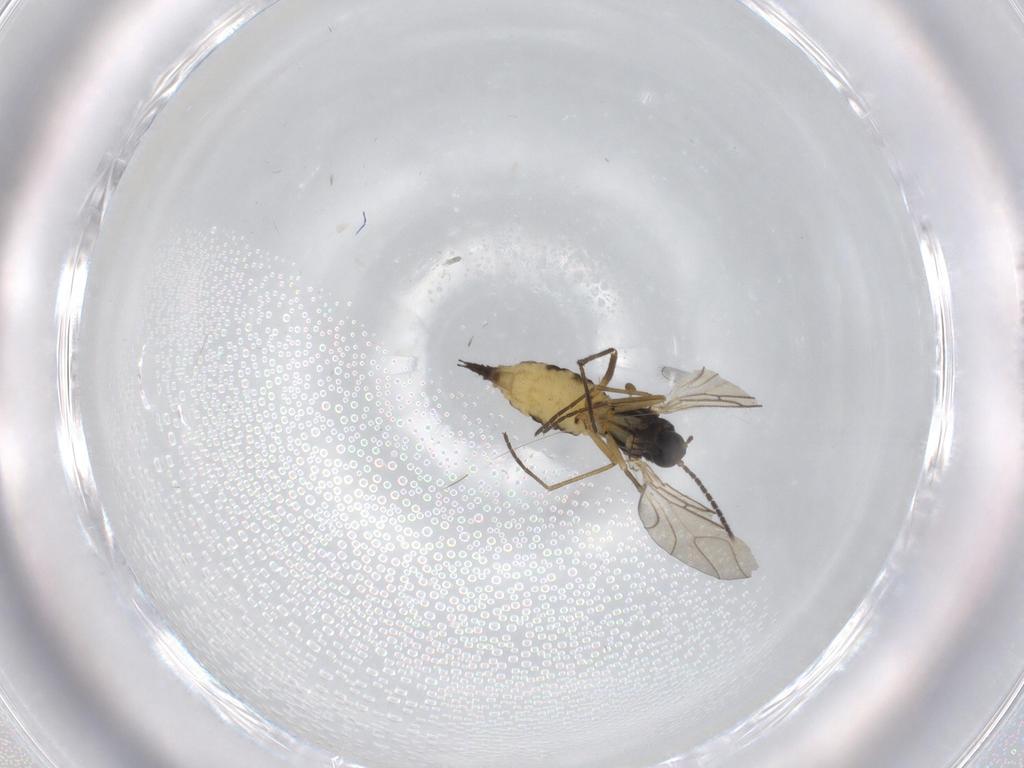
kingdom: Animalia
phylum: Arthropoda
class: Insecta
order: Diptera
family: Sciaridae
